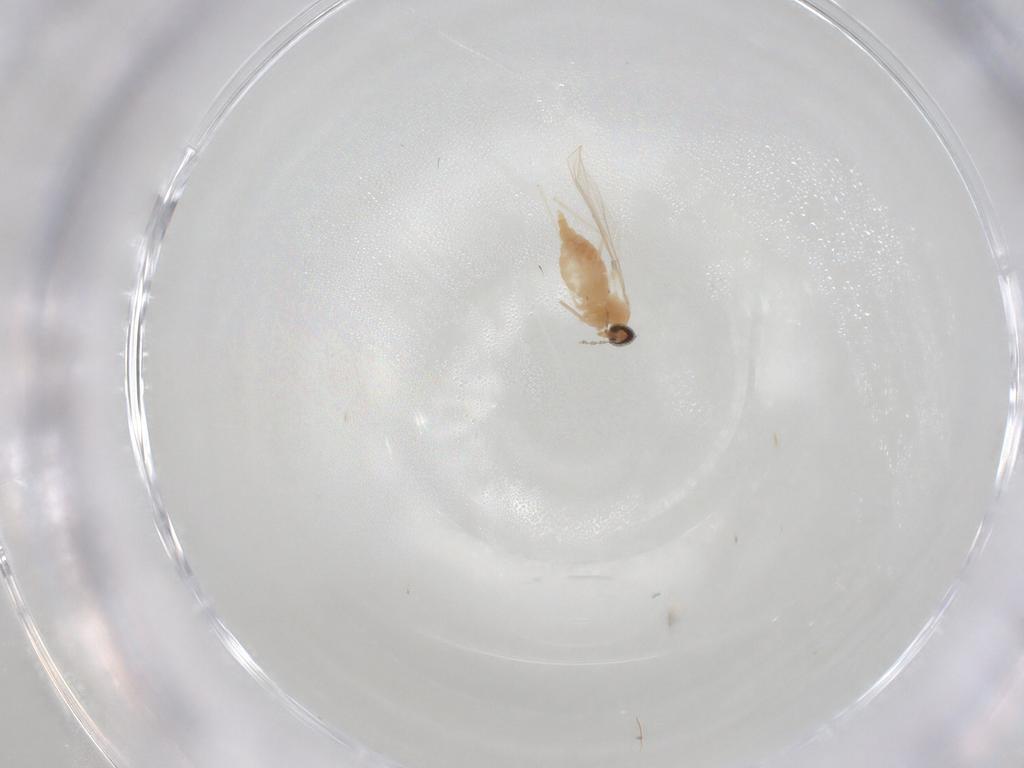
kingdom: Animalia
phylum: Arthropoda
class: Insecta
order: Diptera
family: Cecidomyiidae
